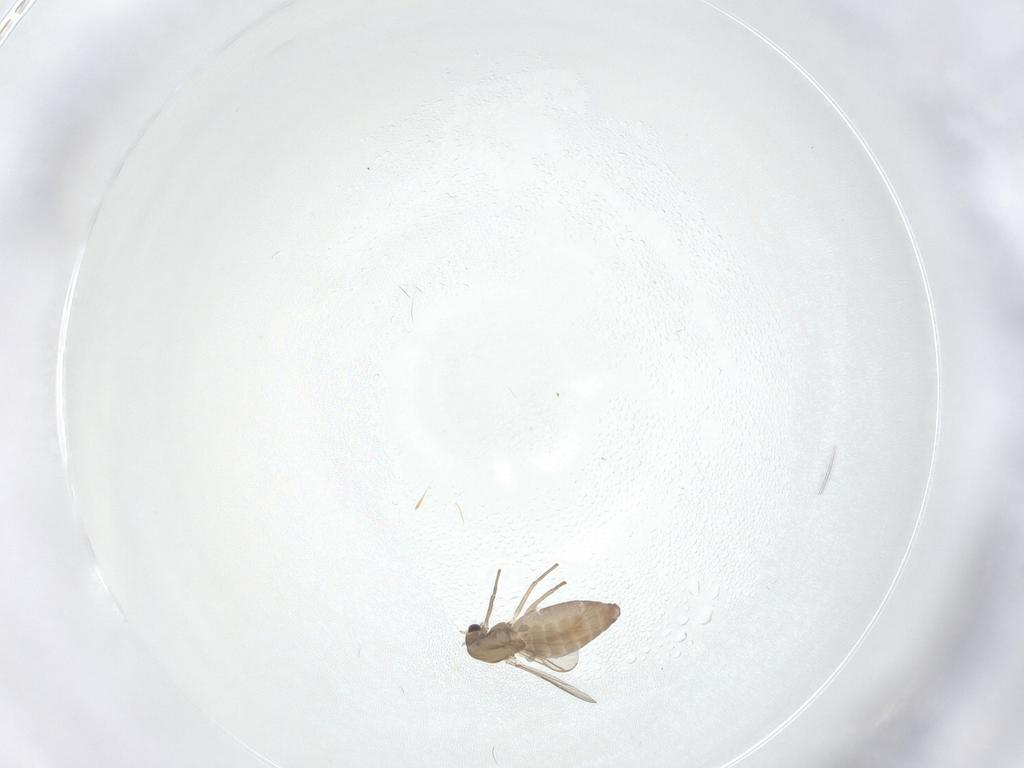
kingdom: Animalia
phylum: Arthropoda
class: Insecta
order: Diptera
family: Chironomidae
